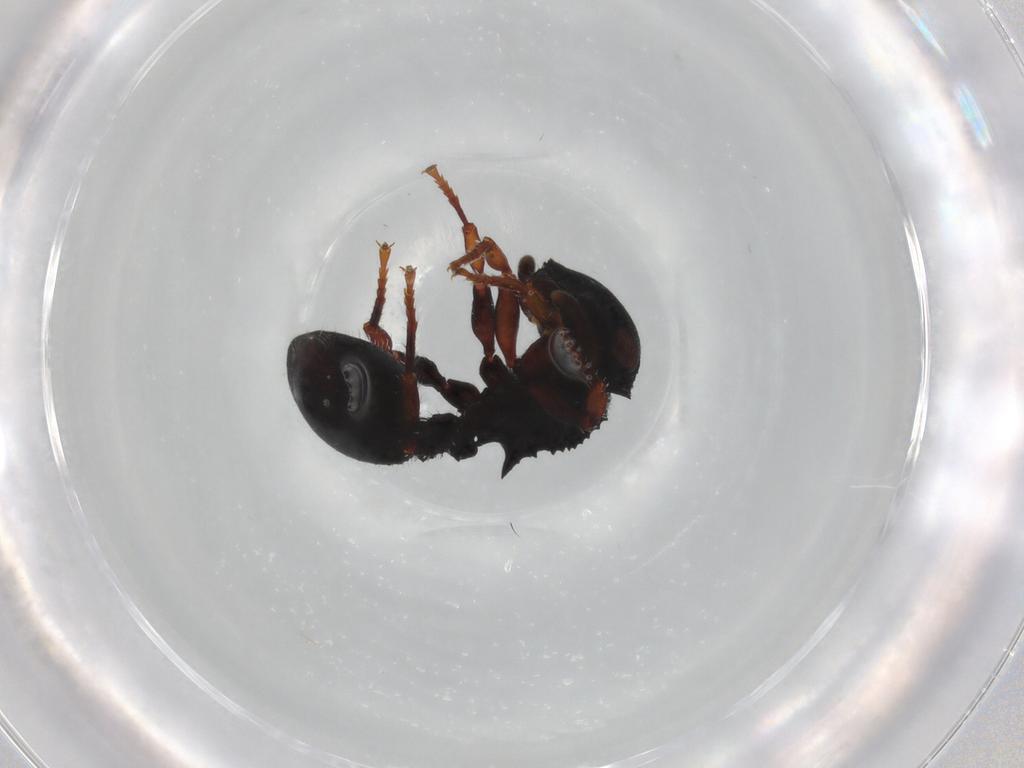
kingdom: Animalia
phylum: Arthropoda
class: Insecta
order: Hymenoptera
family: Formicidae
